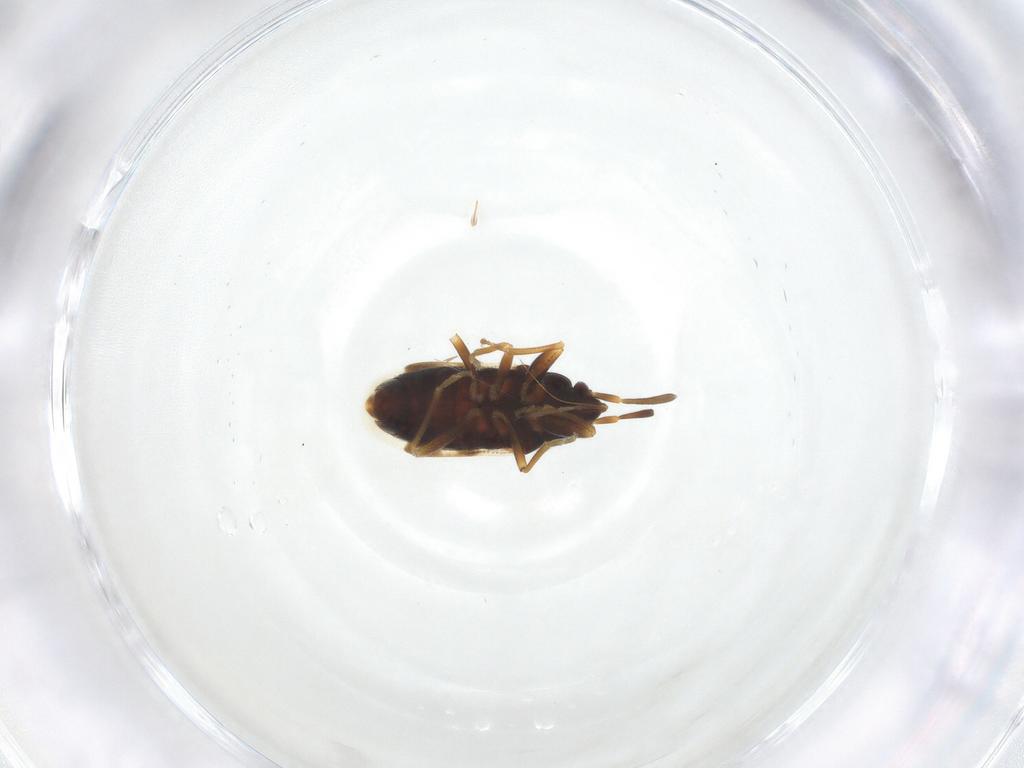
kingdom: Animalia
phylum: Arthropoda
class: Insecta
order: Hemiptera
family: Rhyparochromidae
